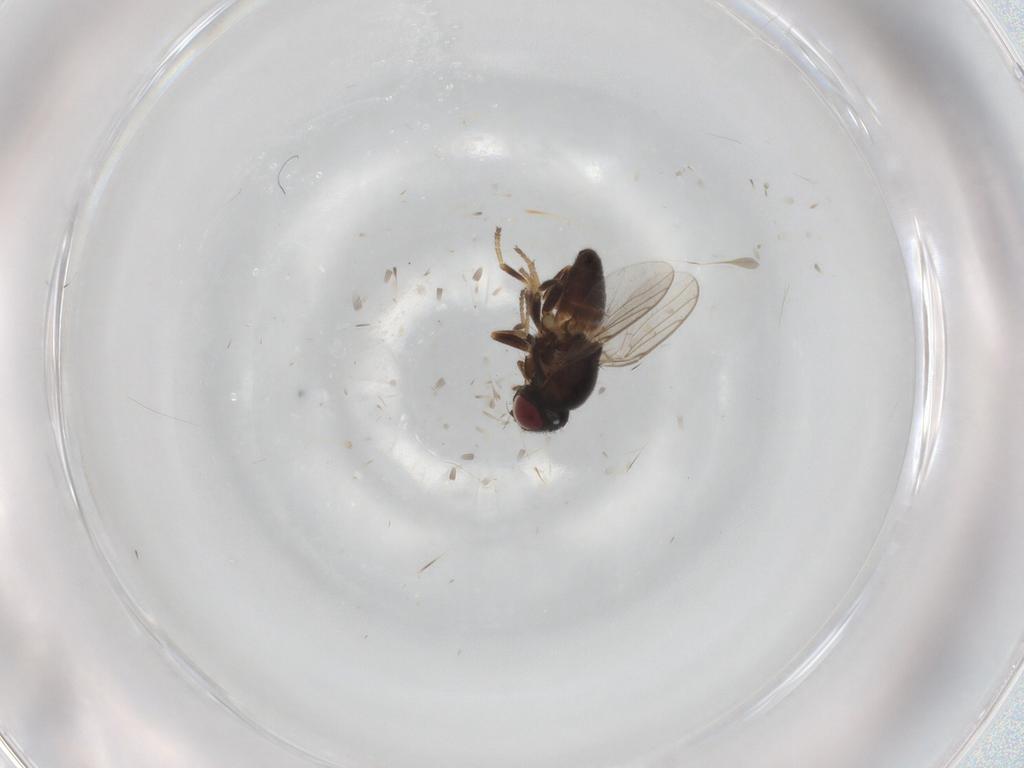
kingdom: Animalia
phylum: Arthropoda
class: Insecta
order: Diptera
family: Chloropidae
